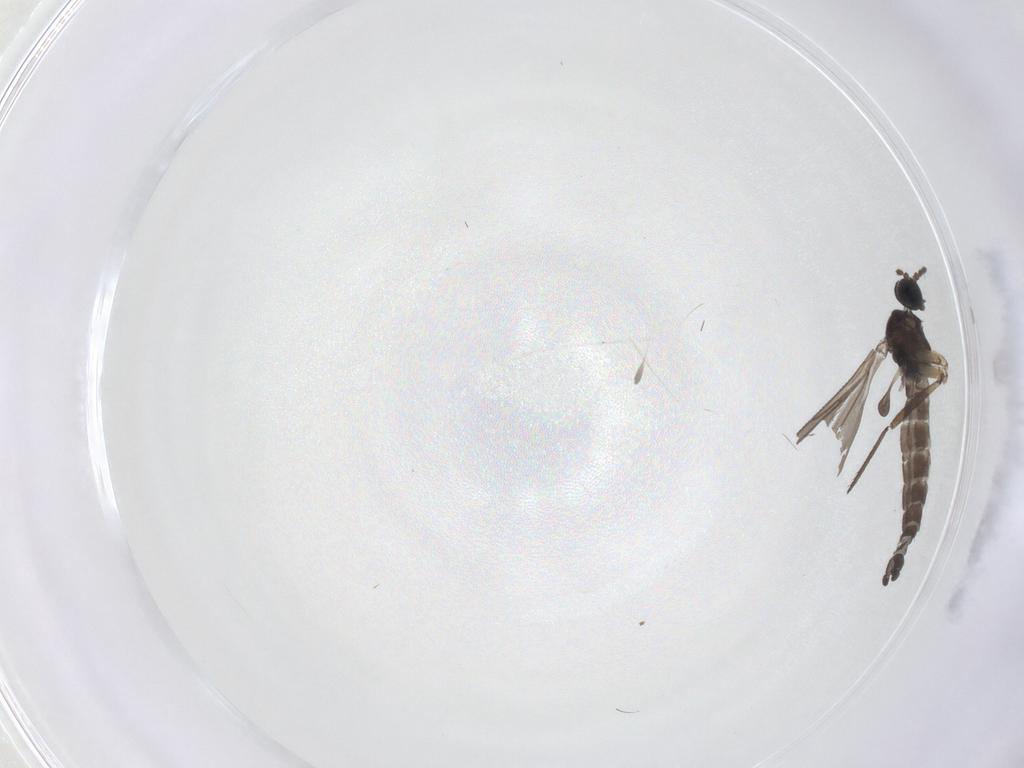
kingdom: Animalia
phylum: Arthropoda
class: Insecta
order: Diptera
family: Sciaridae
